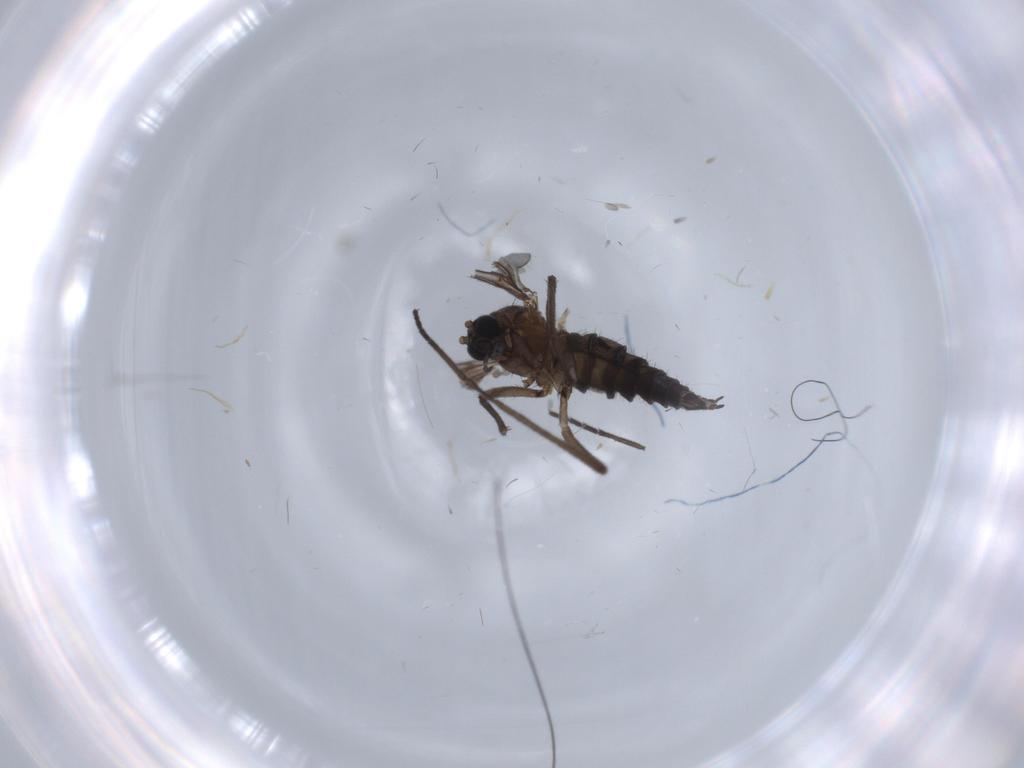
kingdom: Animalia
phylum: Arthropoda
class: Insecta
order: Diptera
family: Sciaridae
